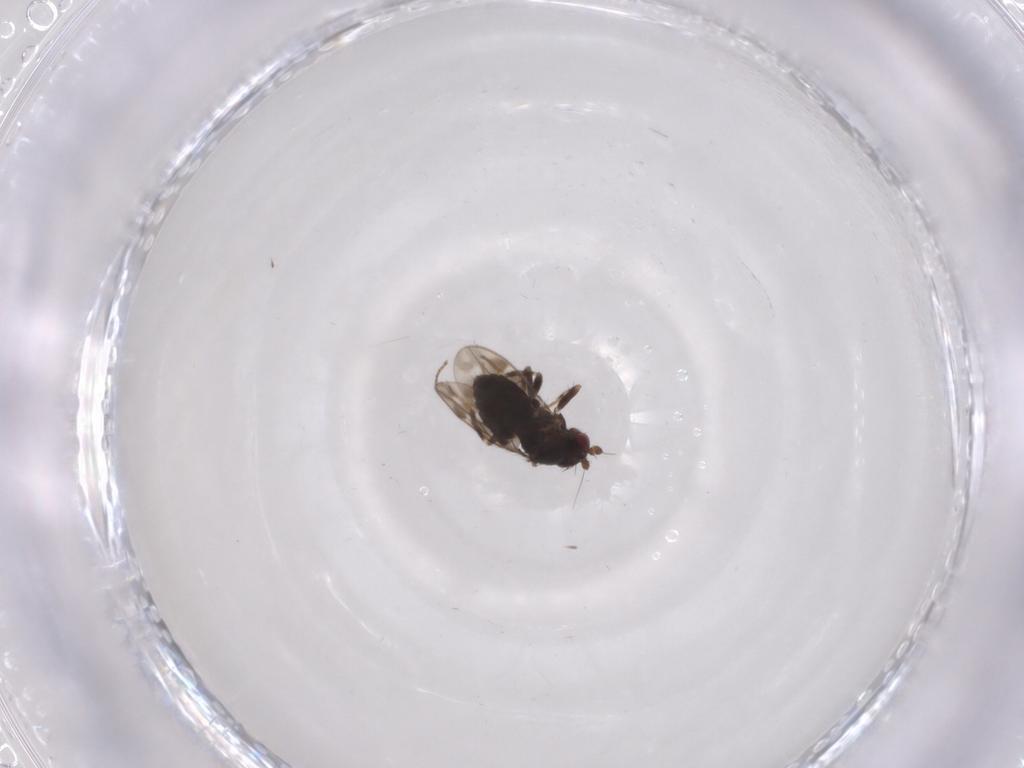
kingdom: Animalia
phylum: Arthropoda
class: Insecta
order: Diptera
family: Sphaeroceridae
